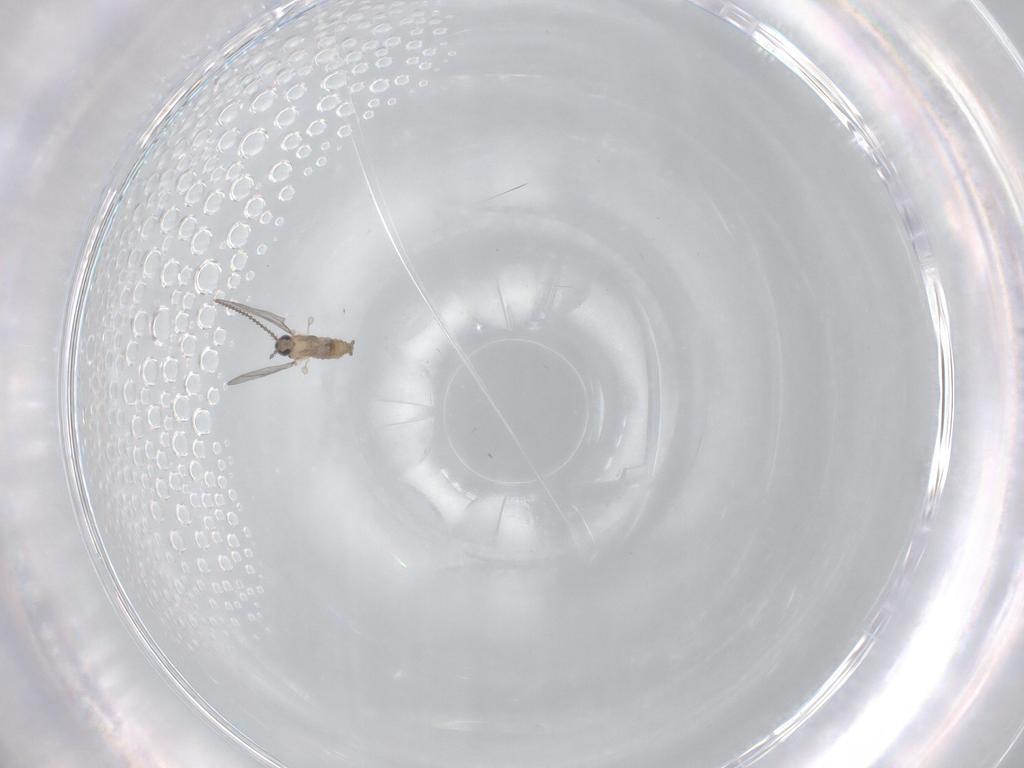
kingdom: Animalia
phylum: Arthropoda
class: Insecta
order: Diptera
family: Cecidomyiidae
